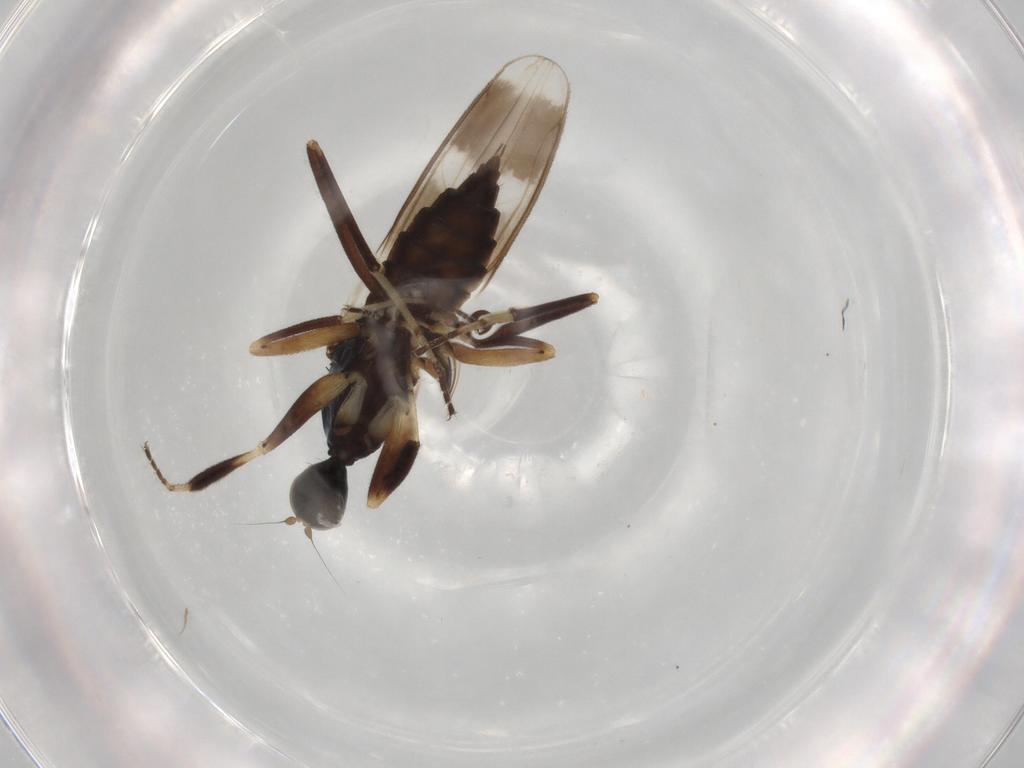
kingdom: Animalia
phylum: Arthropoda
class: Insecta
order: Diptera
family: Hybotidae
